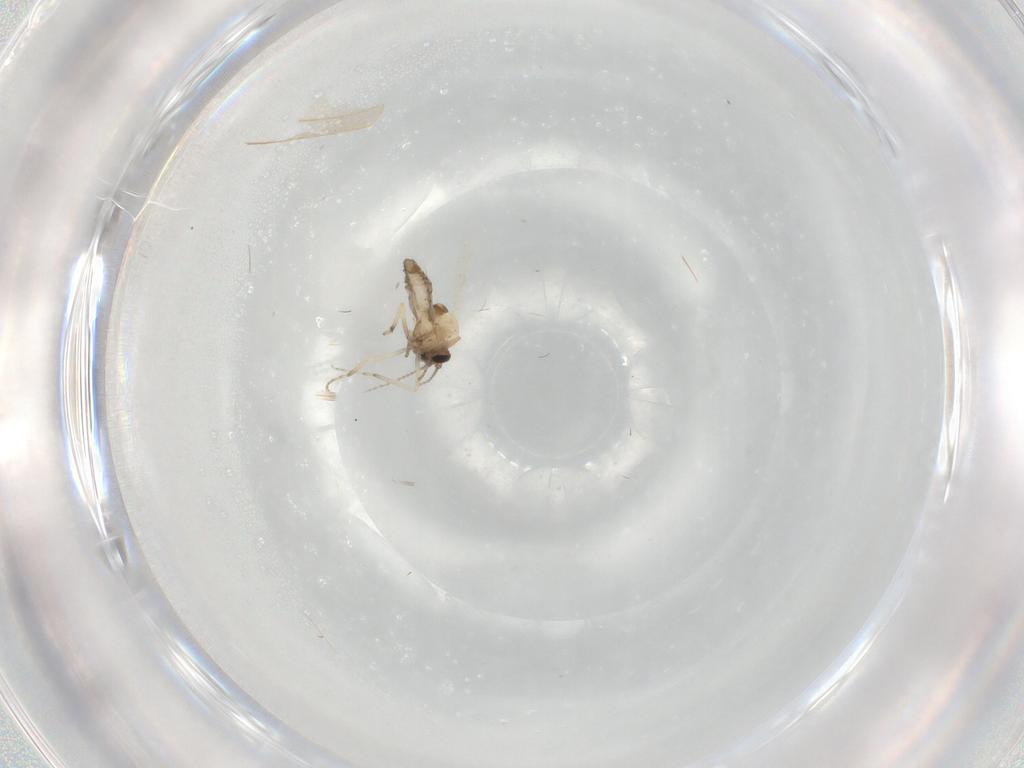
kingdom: Animalia
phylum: Arthropoda
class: Insecta
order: Diptera
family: Ceratopogonidae
